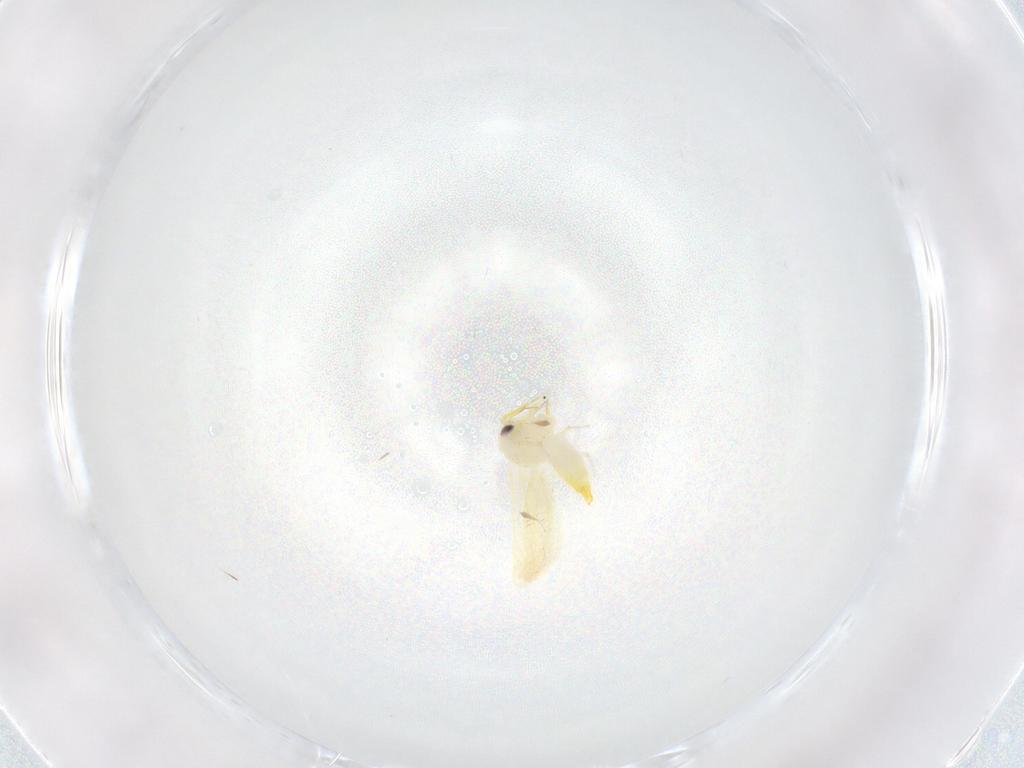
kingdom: Animalia
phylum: Arthropoda
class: Insecta
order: Hemiptera
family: Aleyrodidae
